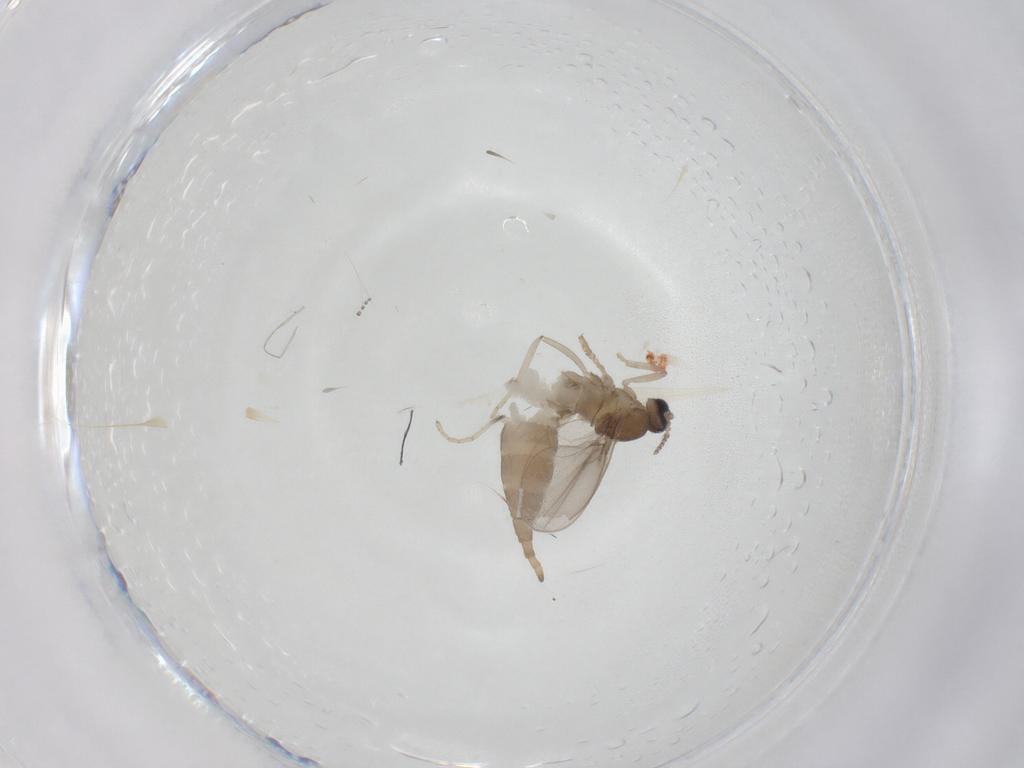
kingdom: Animalia
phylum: Arthropoda
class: Insecta
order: Diptera
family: Cecidomyiidae
